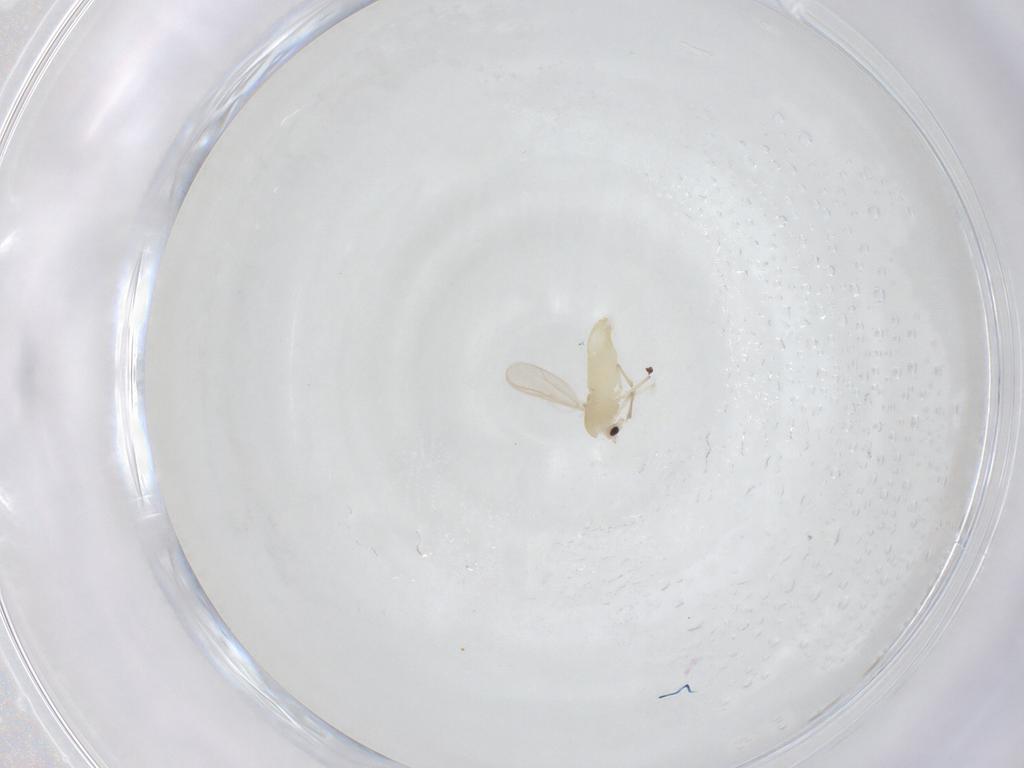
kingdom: Animalia
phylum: Arthropoda
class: Insecta
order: Diptera
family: Chironomidae
